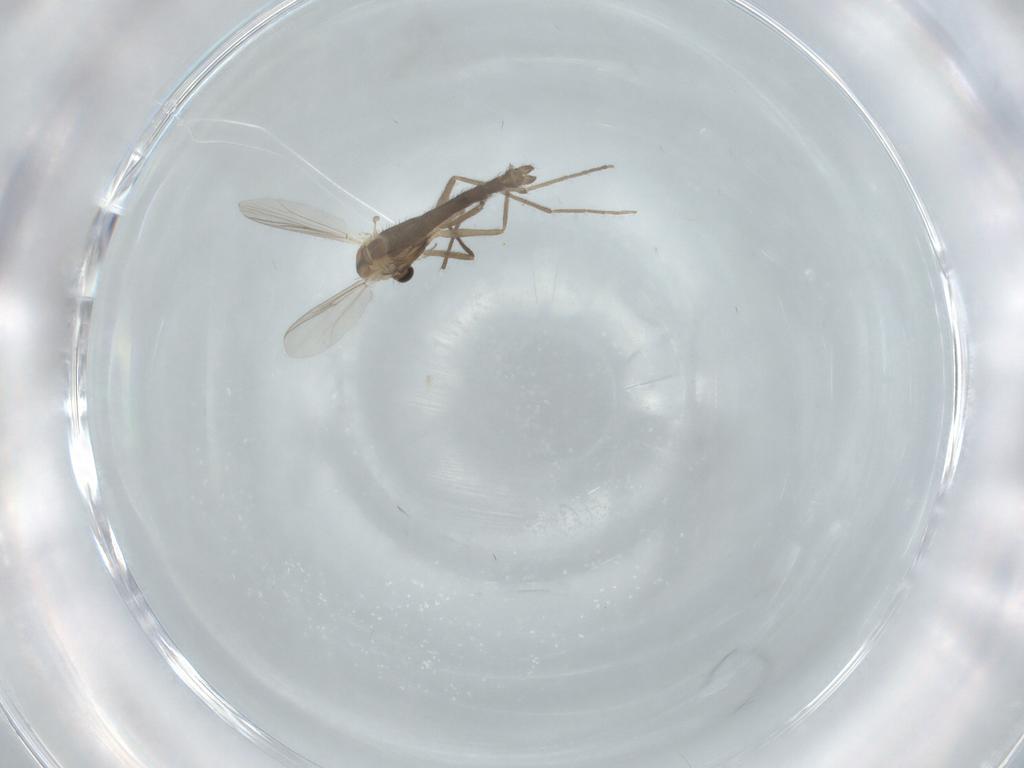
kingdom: Animalia
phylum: Arthropoda
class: Insecta
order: Diptera
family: Chironomidae
